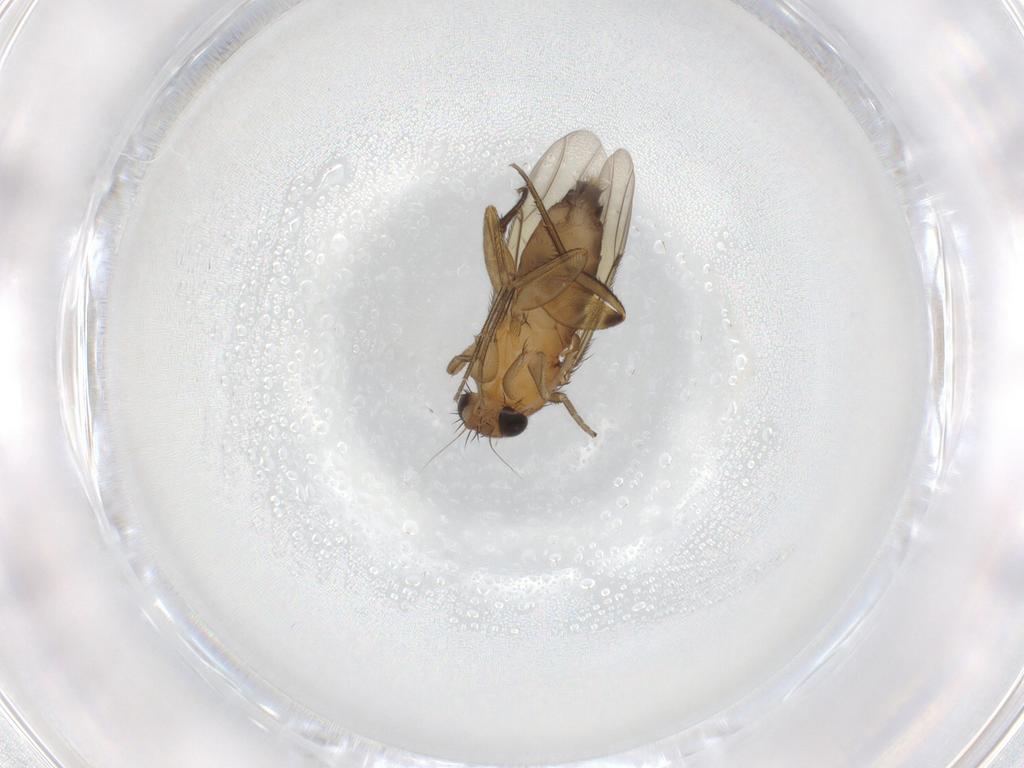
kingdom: Animalia
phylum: Arthropoda
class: Insecta
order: Diptera
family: Phoridae
